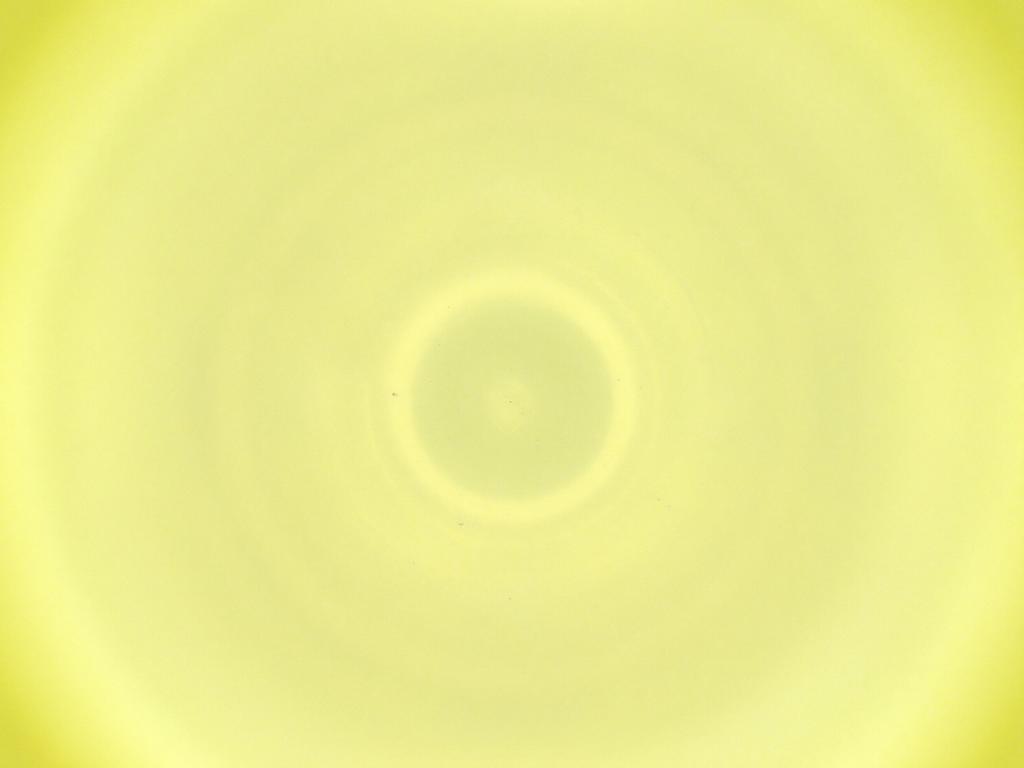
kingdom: Animalia
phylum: Arthropoda
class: Insecta
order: Diptera
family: Cecidomyiidae
